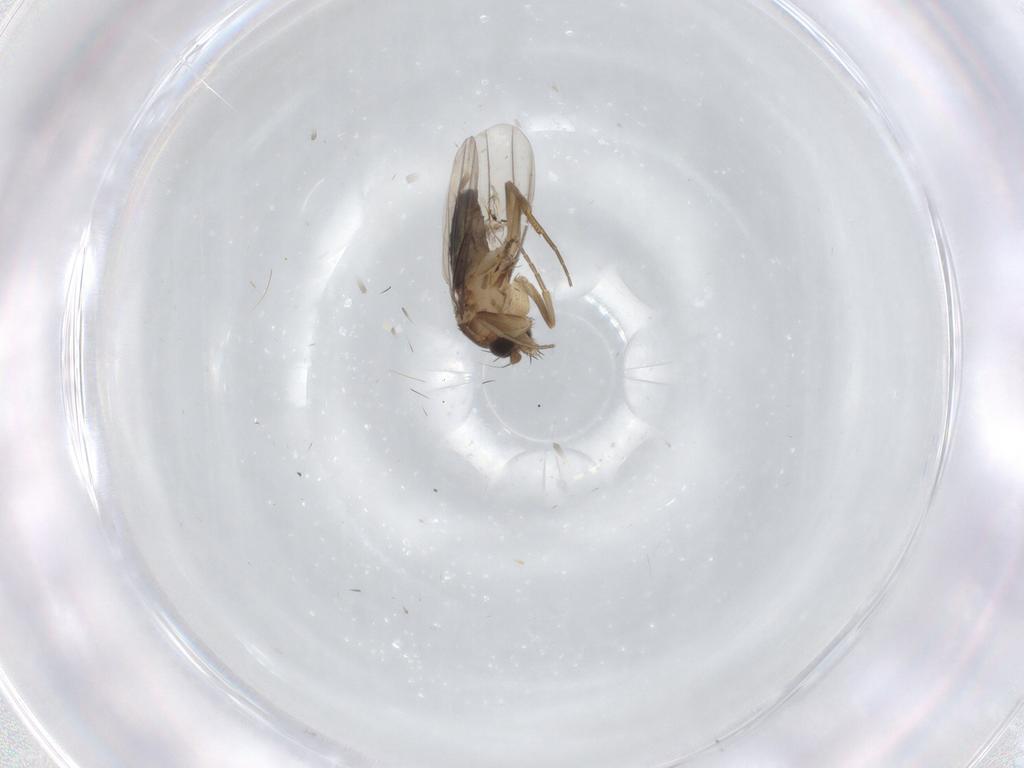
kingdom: Animalia
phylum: Arthropoda
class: Insecta
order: Diptera
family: Phoridae
